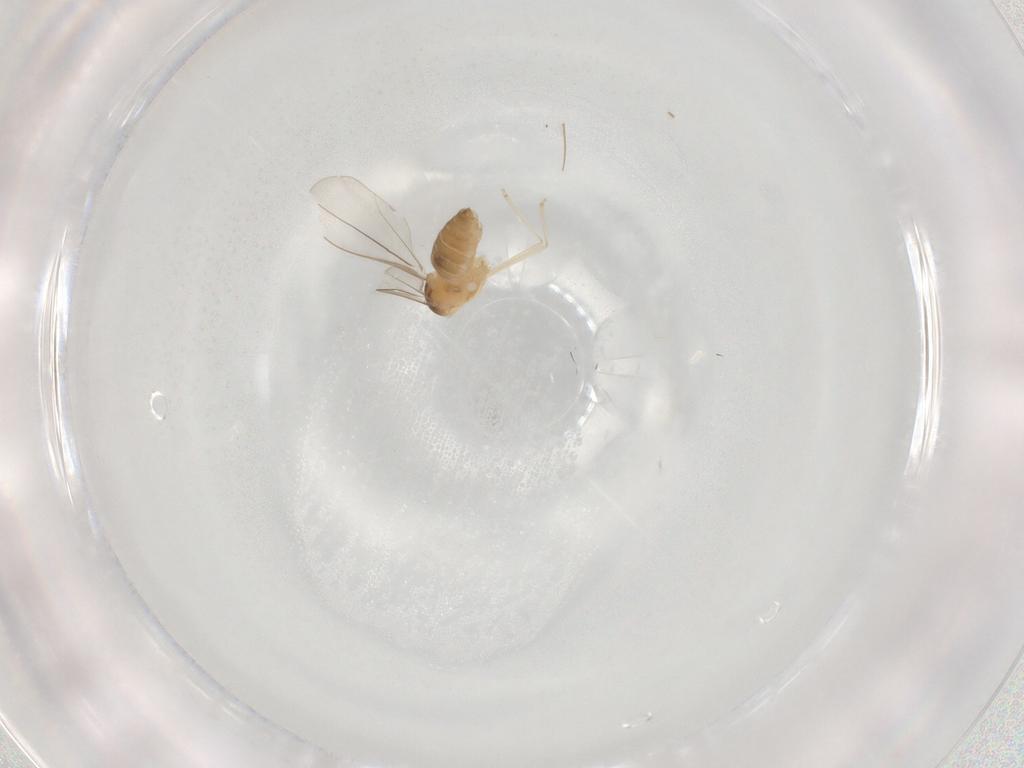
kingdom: Animalia
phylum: Arthropoda
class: Insecta
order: Diptera
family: Cecidomyiidae
